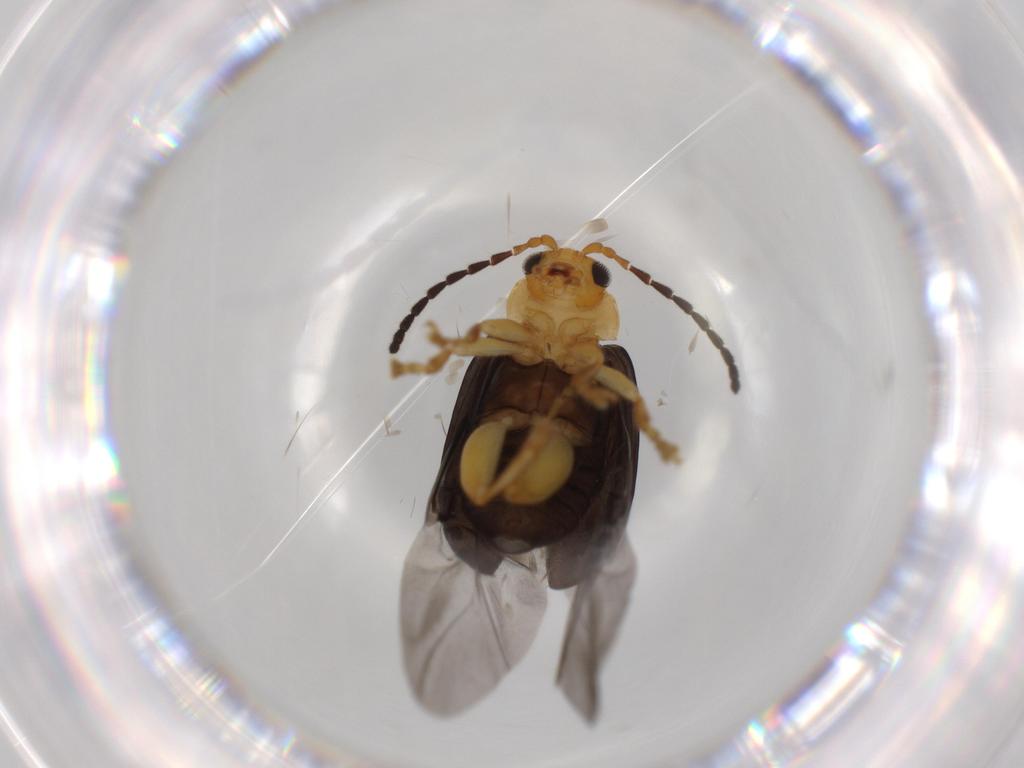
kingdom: Animalia
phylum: Arthropoda
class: Insecta
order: Coleoptera
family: Chrysomelidae
